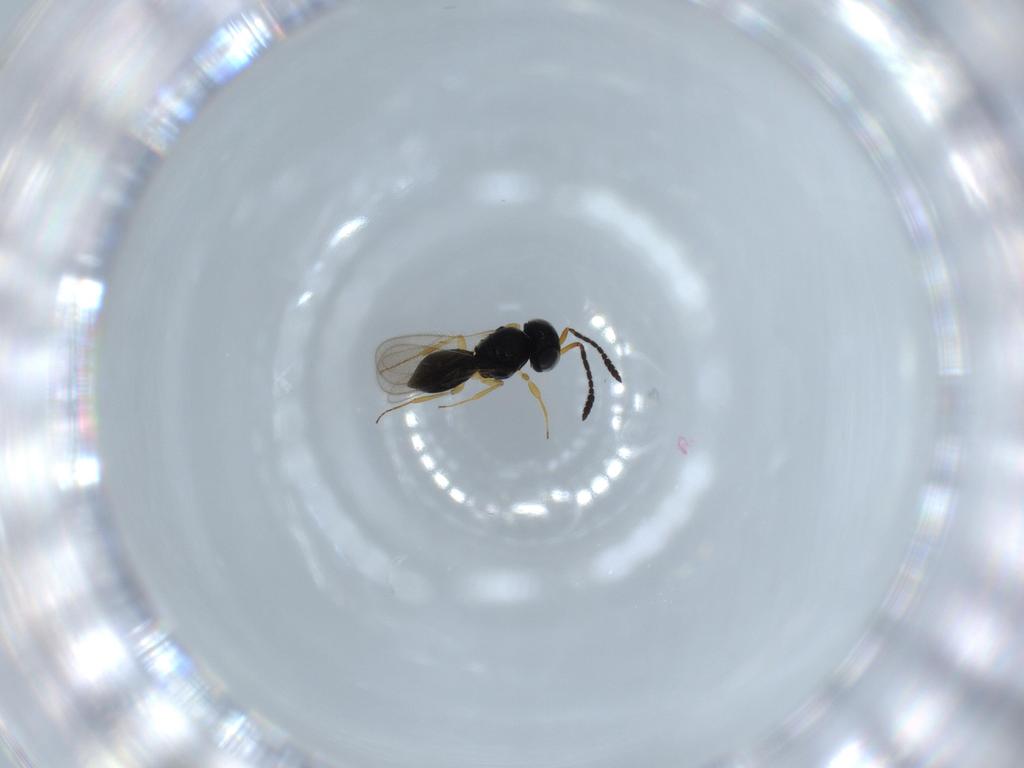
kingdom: Animalia
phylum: Arthropoda
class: Insecta
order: Hymenoptera
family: Scelionidae
